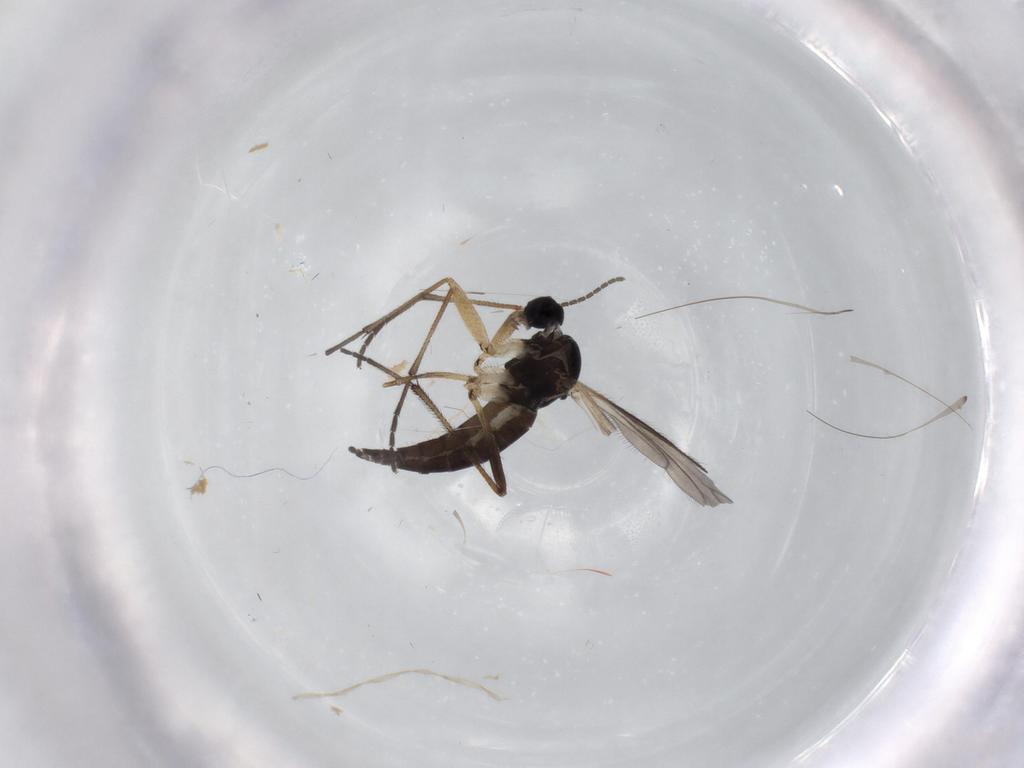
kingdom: Animalia
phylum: Arthropoda
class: Insecta
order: Diptera
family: Sciaridae
